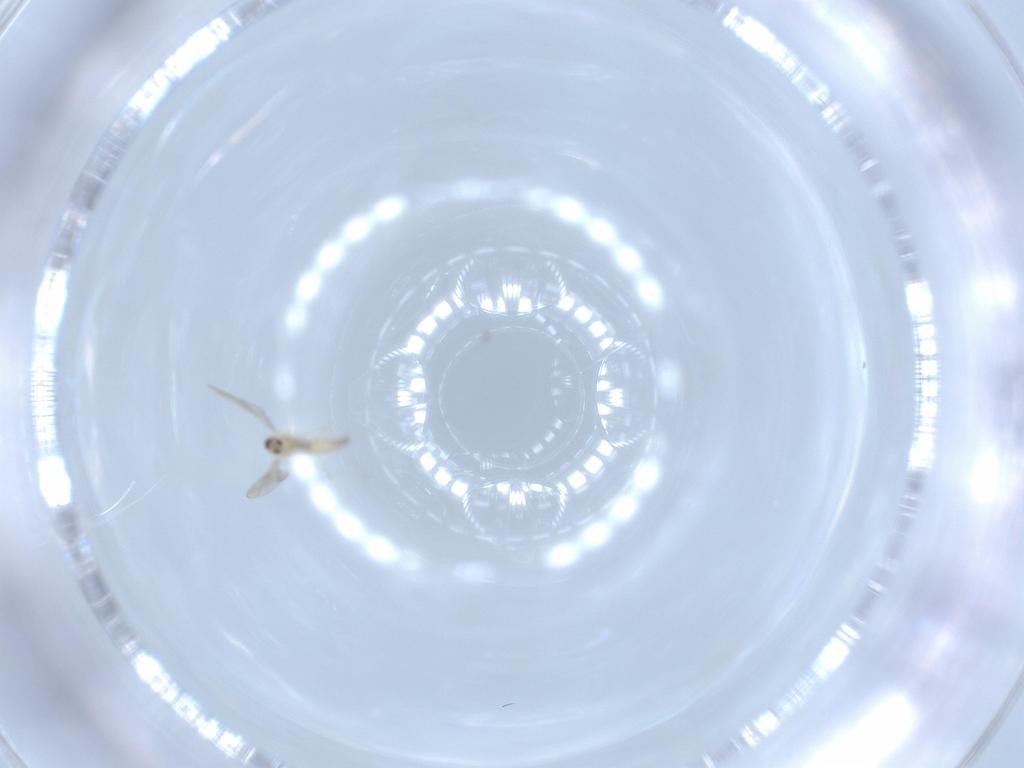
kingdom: Animalia
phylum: Arthropoda
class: Insecta
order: Diptera
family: Cecidomyiidae
